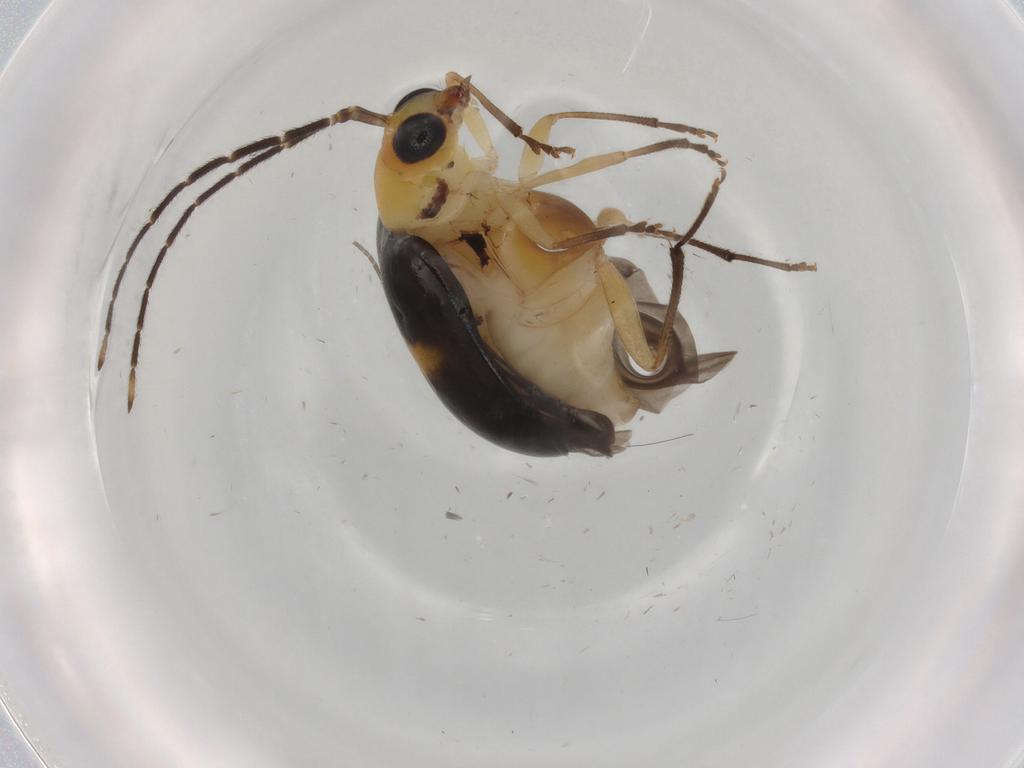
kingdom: Animalia
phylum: Arthropoda
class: Insecta
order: Coleoptera
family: Chrysomelidae
